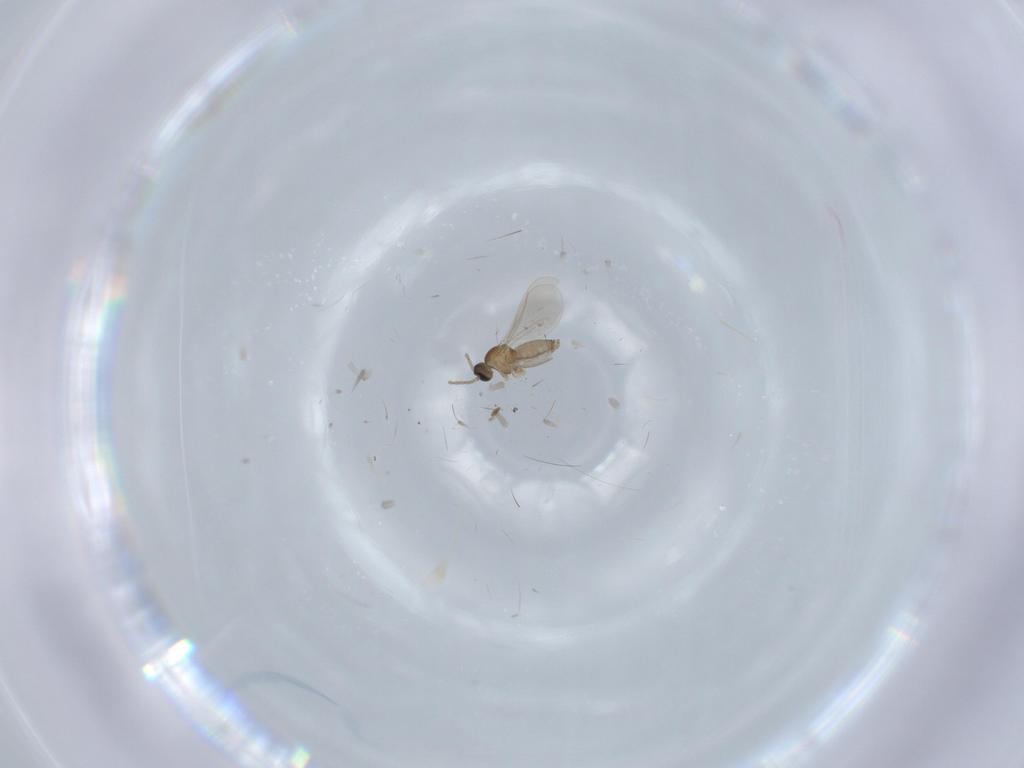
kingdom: Animalia
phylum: Arthropoda
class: Insecta
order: Diptera
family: Cecidomyiidae
